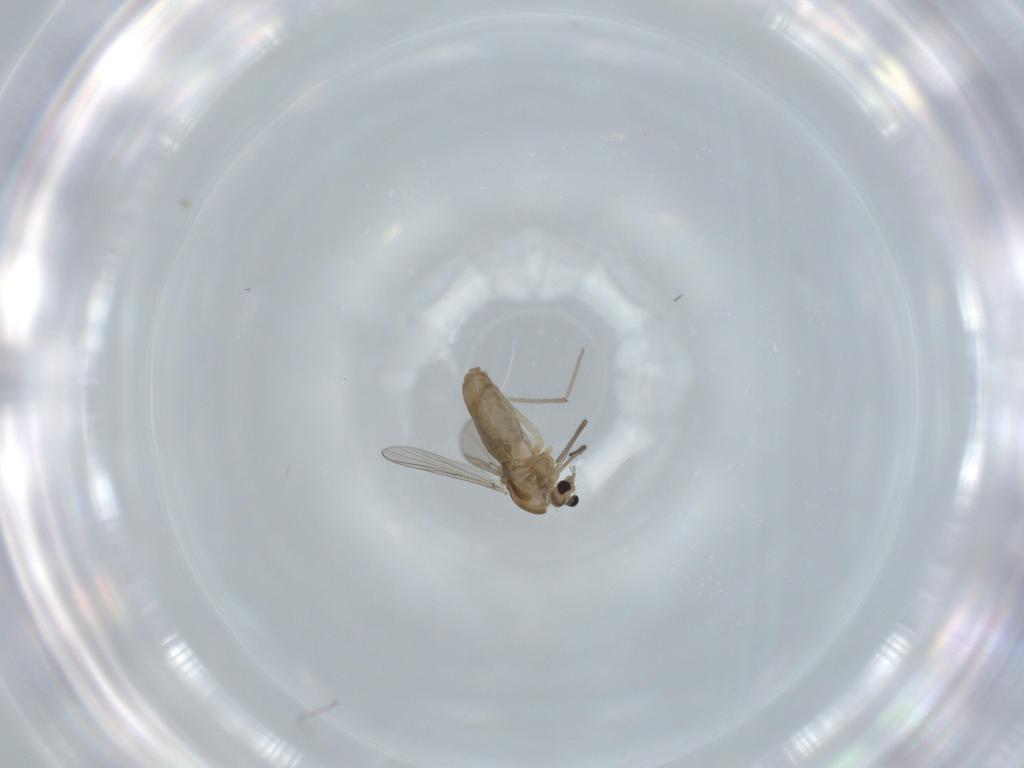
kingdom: Animalia
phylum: Arthropoda
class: Insecta
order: Diptera
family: Chironomidae
